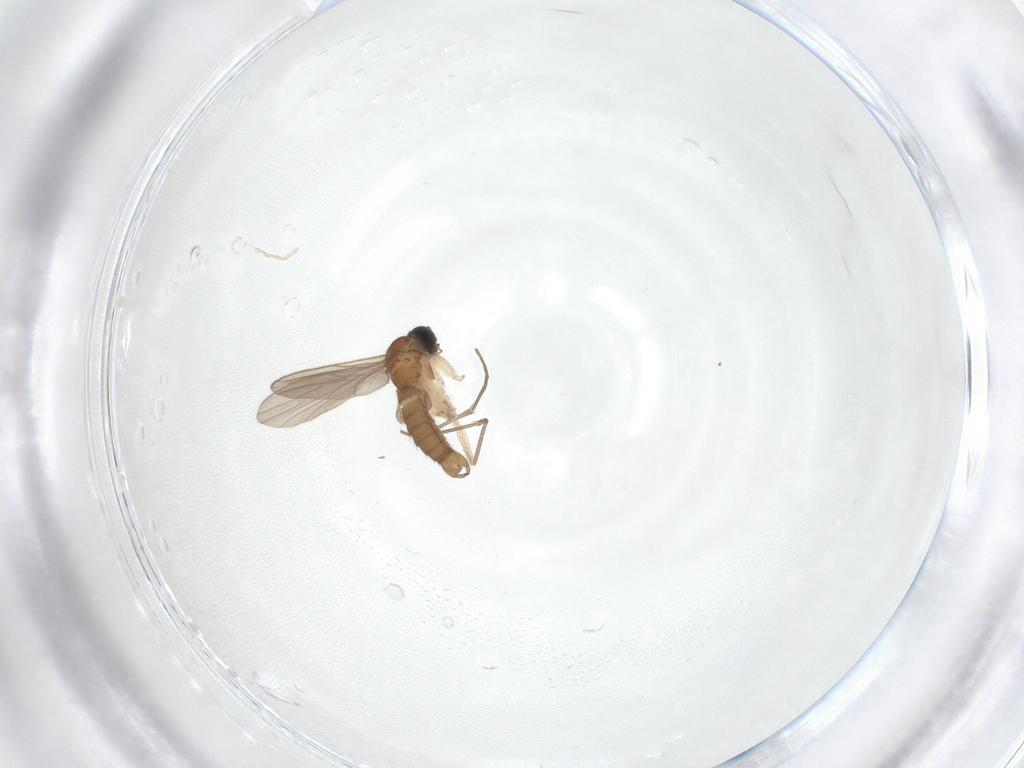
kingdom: Animalia
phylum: Arthropoda
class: Insecta
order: Diptera
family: Sciaridae
